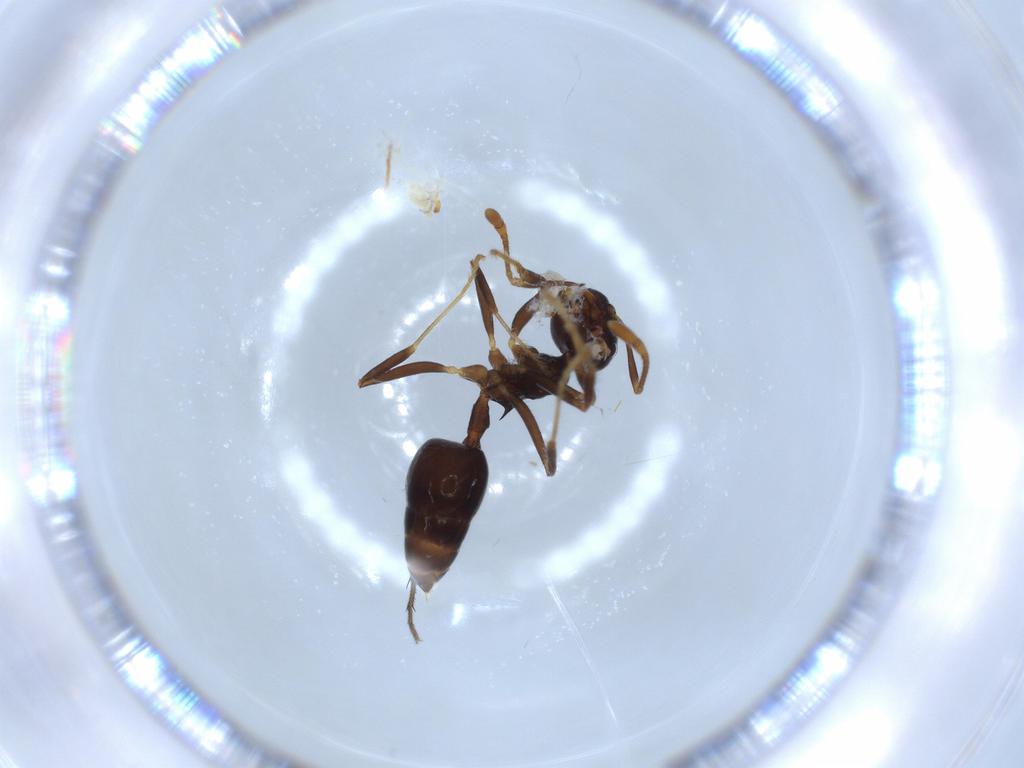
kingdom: Animalia
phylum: Arthropoda
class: Insecta
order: Hymenoptera
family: Formicidae
